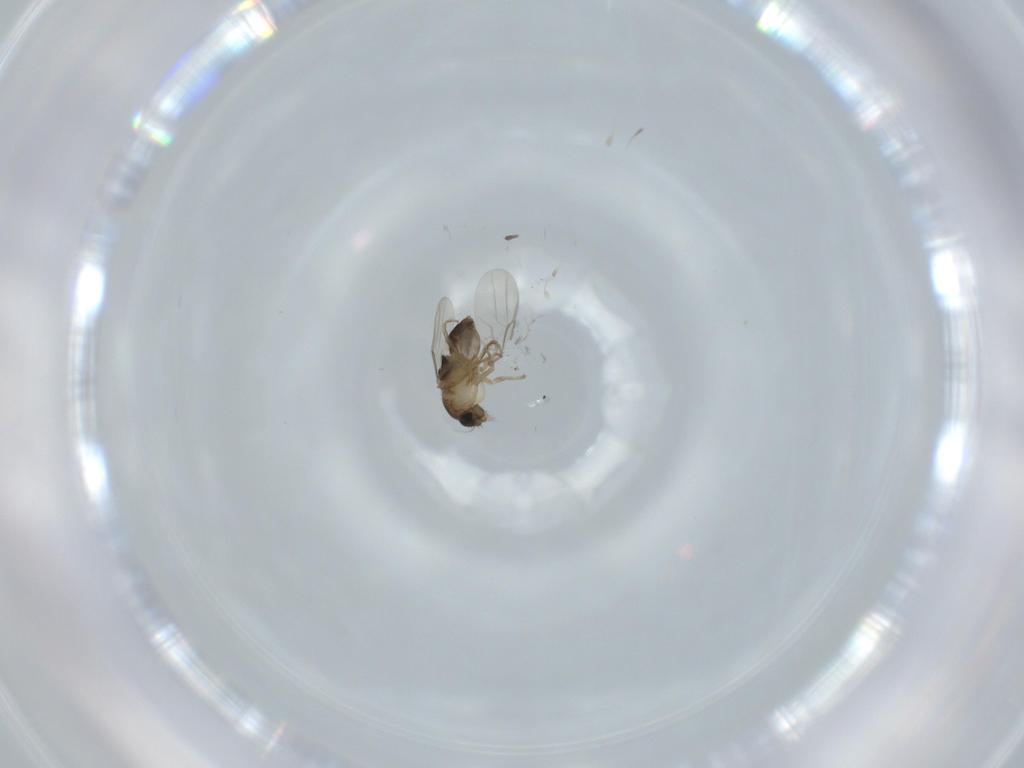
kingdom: Animalia
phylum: Arthropoda
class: Insecta
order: Diptera
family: Phoridae
